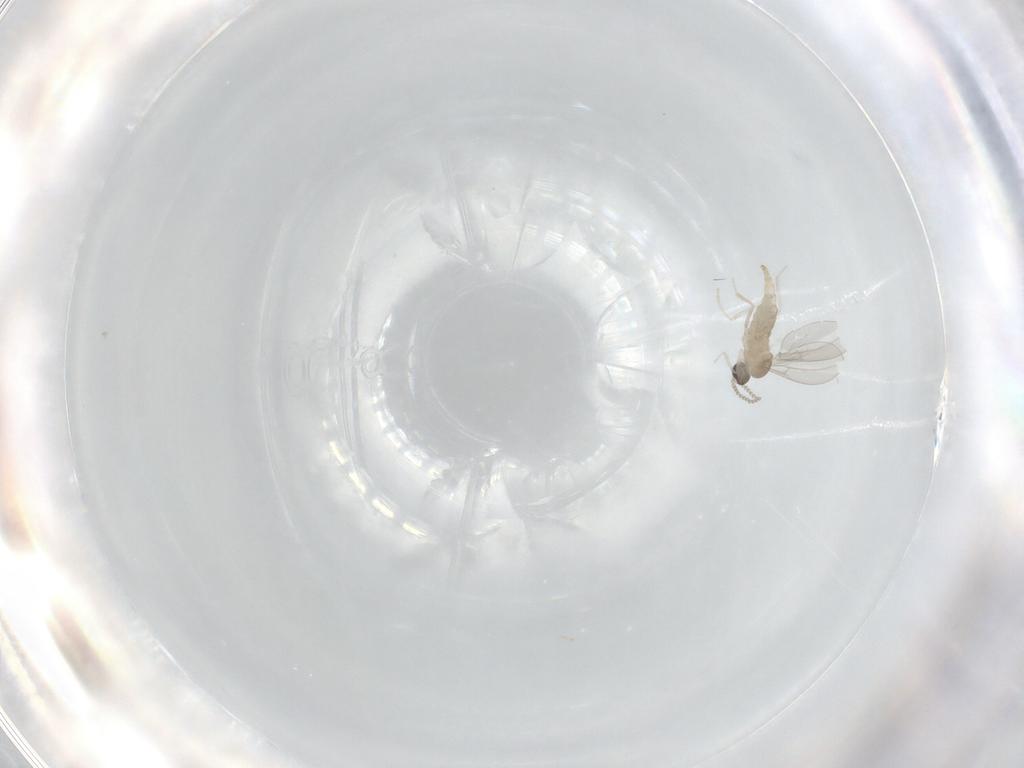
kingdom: Animalia
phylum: Arthropoda
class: Insecta
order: Diptera
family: Cecidomyiidae
